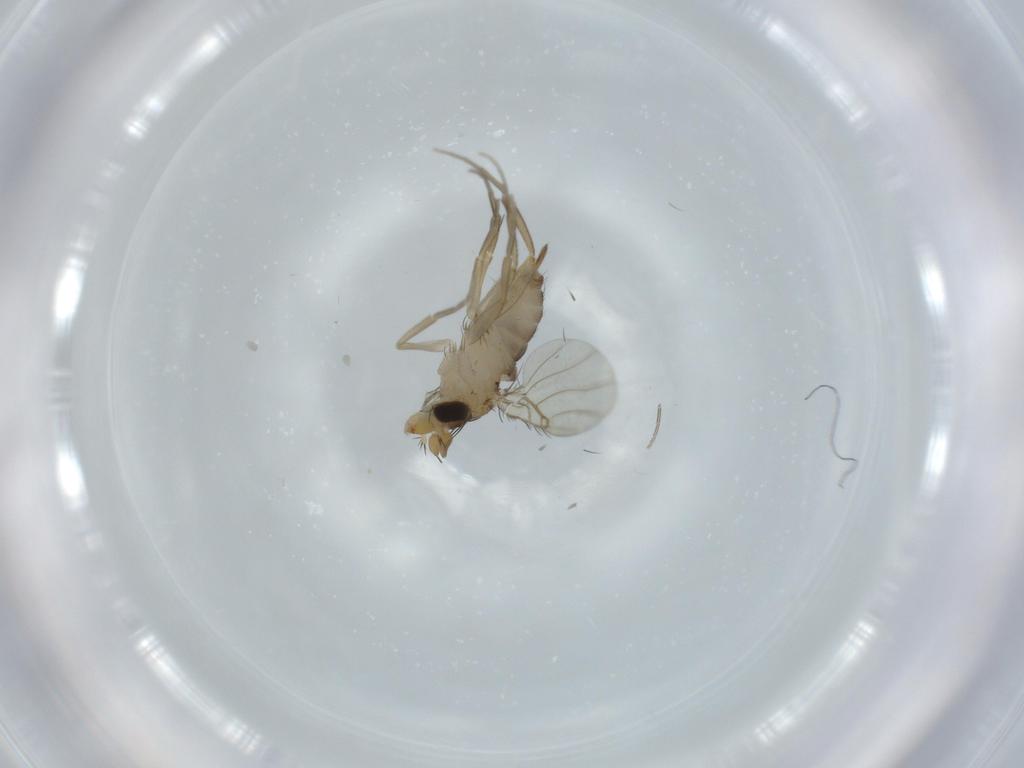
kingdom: Animalia
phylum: Arthropoda
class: Insecta
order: Diptera
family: Phoridae
